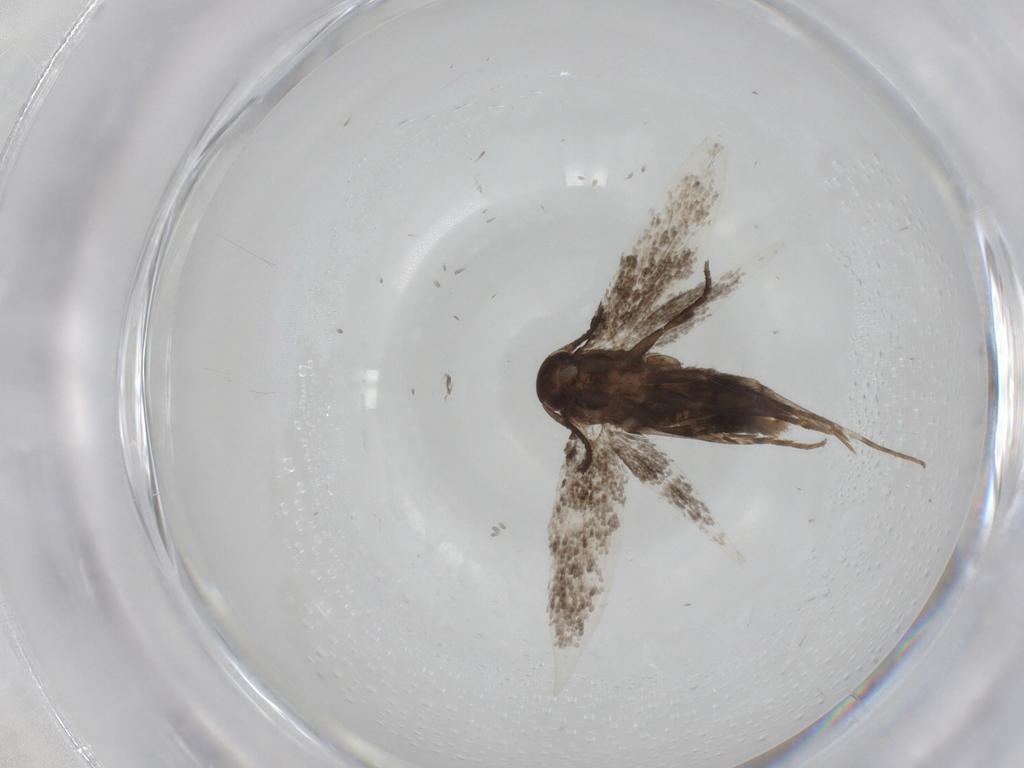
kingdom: Animalia
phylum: Arthropoda
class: Insecta
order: Lepidoptera
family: Elachistidae
